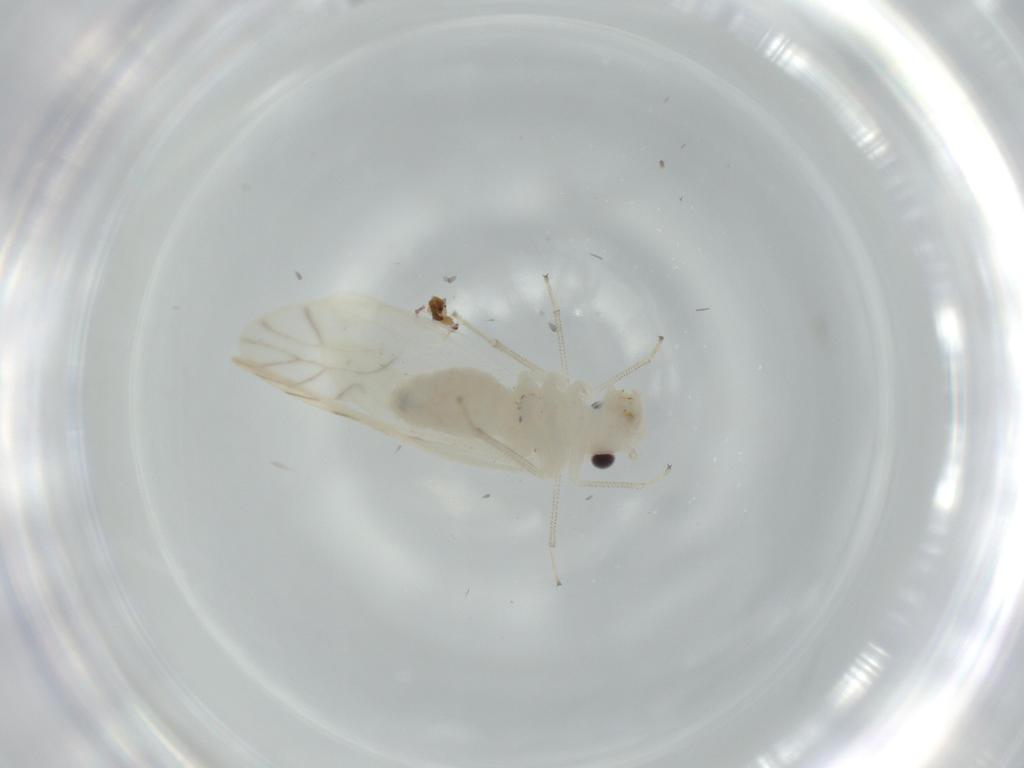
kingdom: Animalia
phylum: Arthropoda
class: Insecta
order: Psocodea
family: Caeciliusidae
